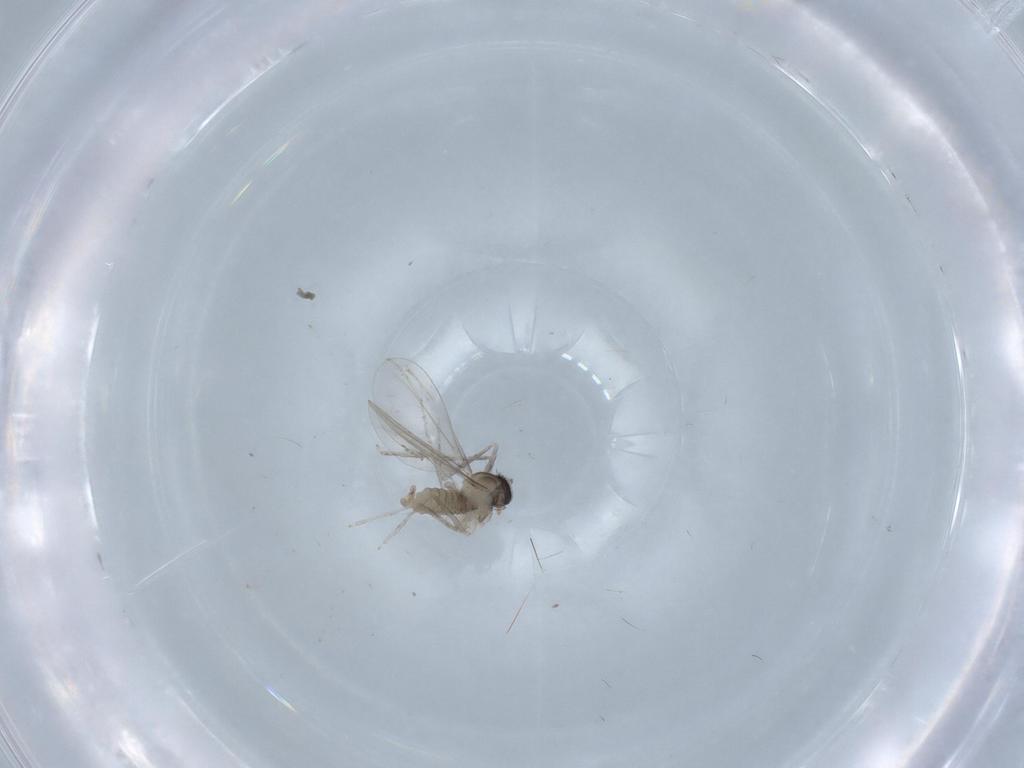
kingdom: Animalia
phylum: Arthropoda
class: Insecta
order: Diptera
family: Cecidomyiidae
